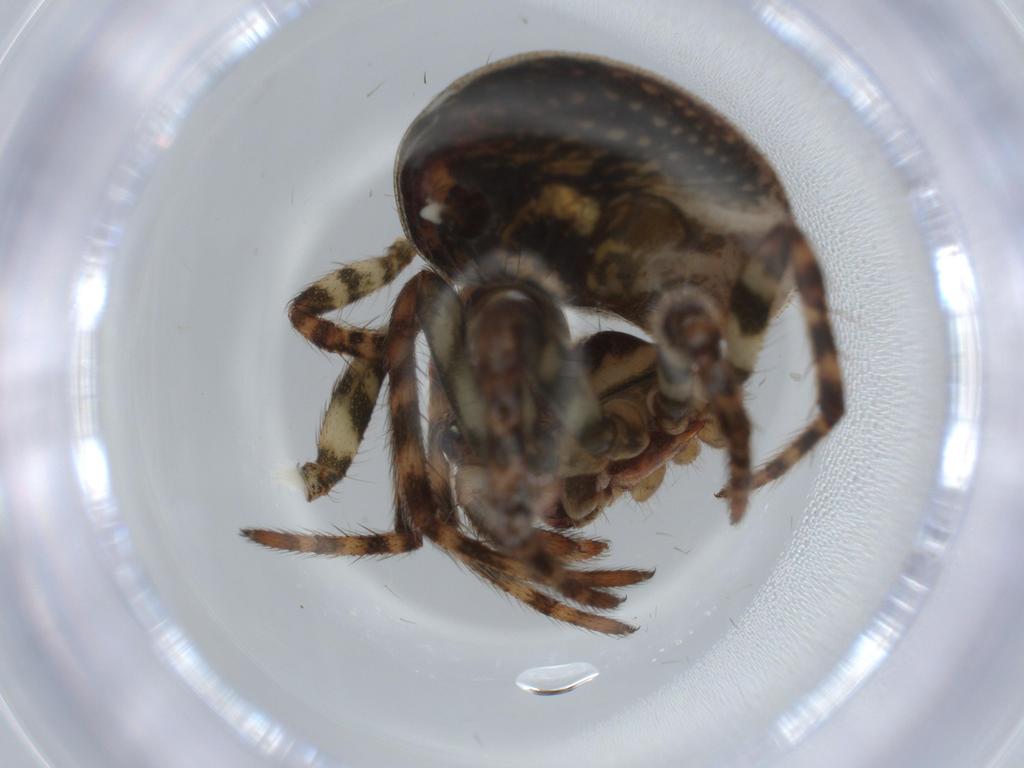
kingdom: Animalia
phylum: Arthropoda
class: Arachnida
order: Araneae
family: Araneidae
